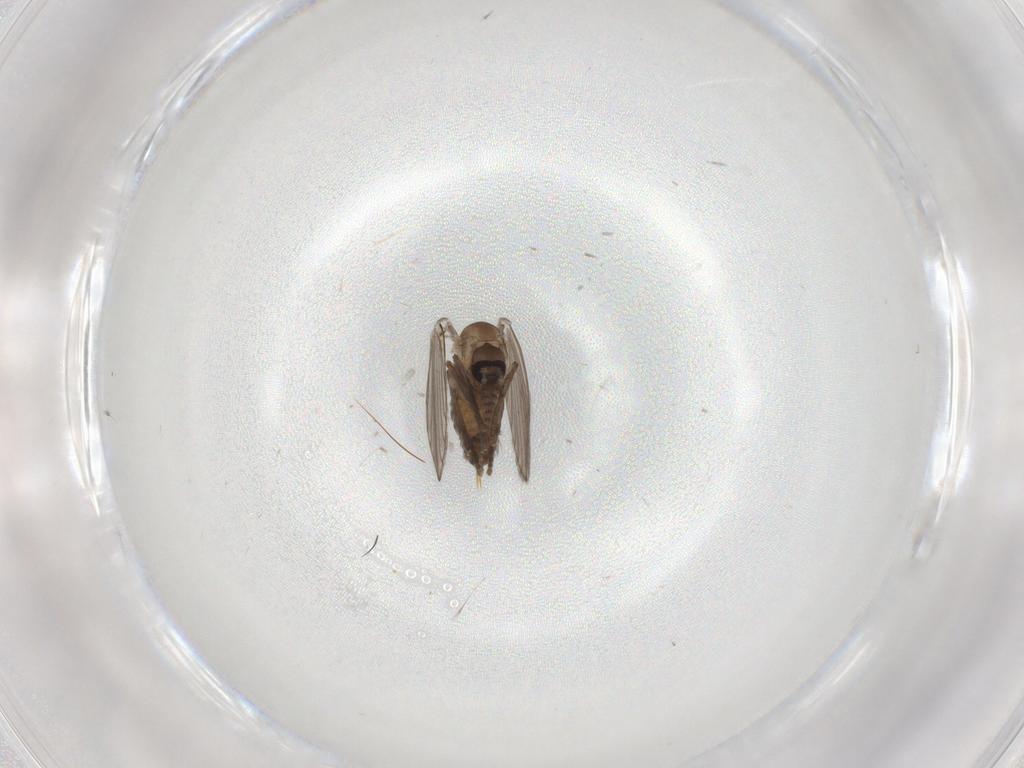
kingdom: Animalia
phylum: Arthropoda
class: Insecta
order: Diptera
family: Psychodidae
